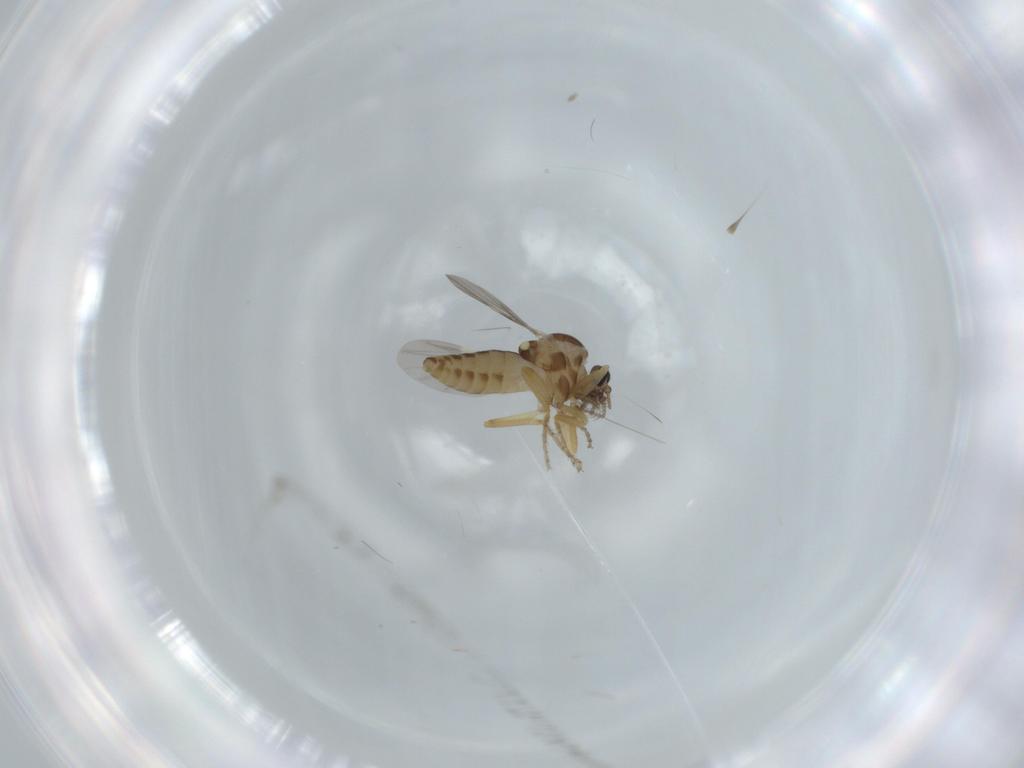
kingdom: Animalia
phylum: Arthropoda
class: Insecta
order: Diptera
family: Ceratopogonidae
